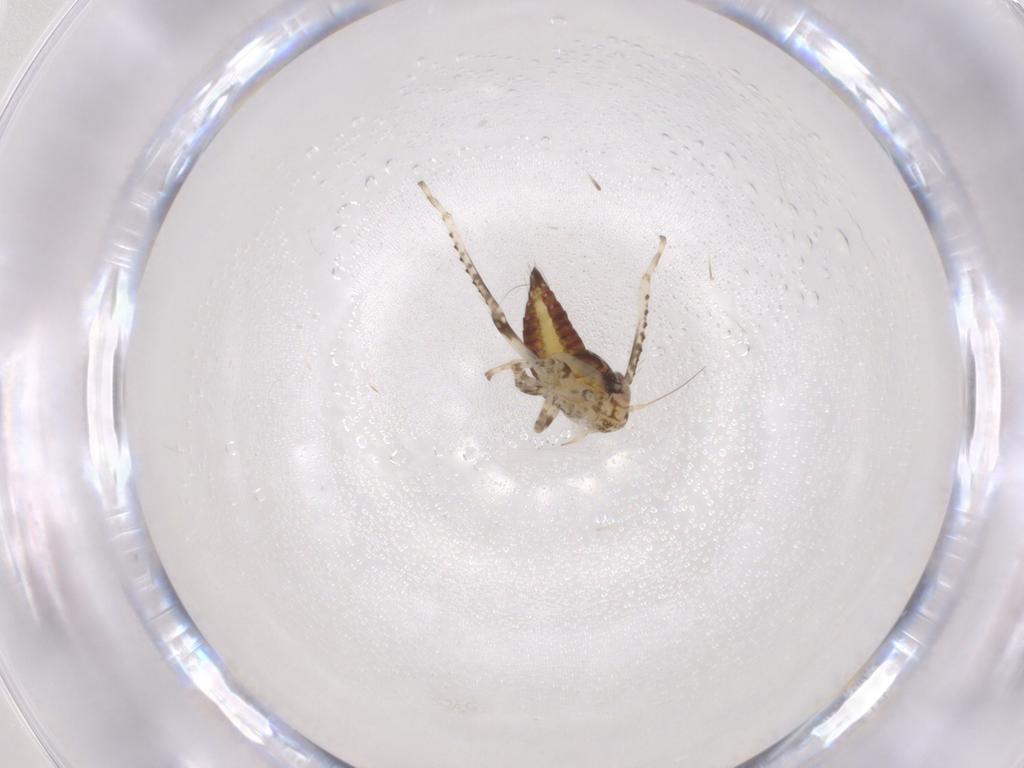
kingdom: Animalia
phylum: Arthropoda
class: Insecta
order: Hemiptera
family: Cicadellidae
